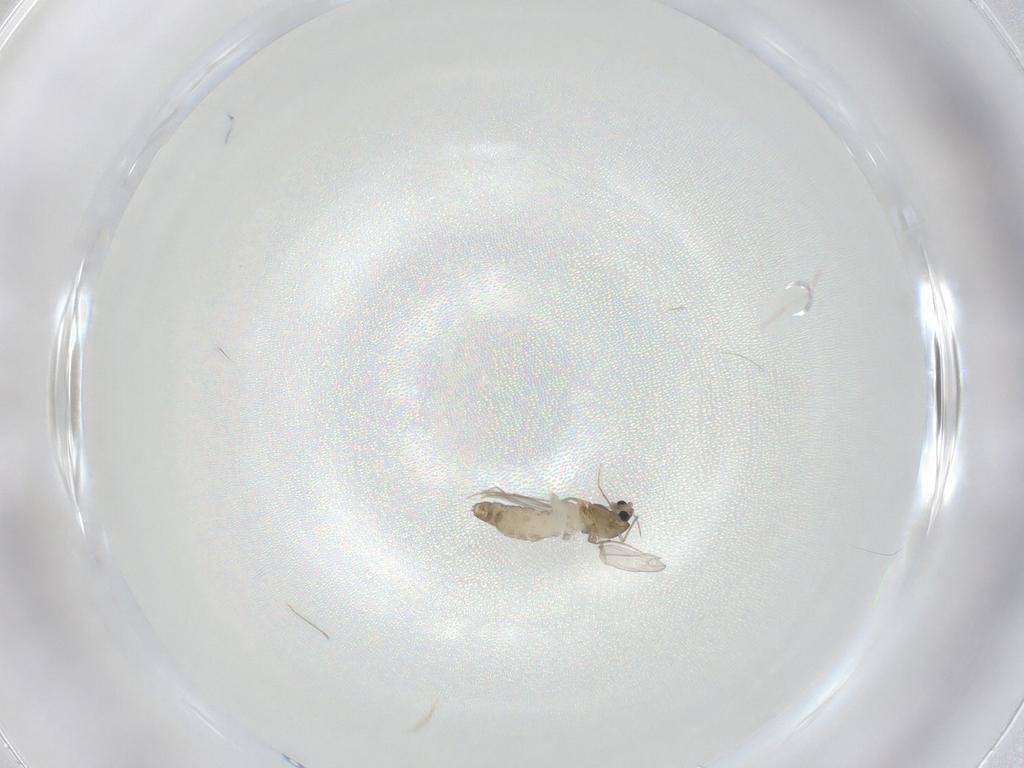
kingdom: Animalia
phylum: Arthropoda
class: Insecta
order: Diptera
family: Chironomidae
